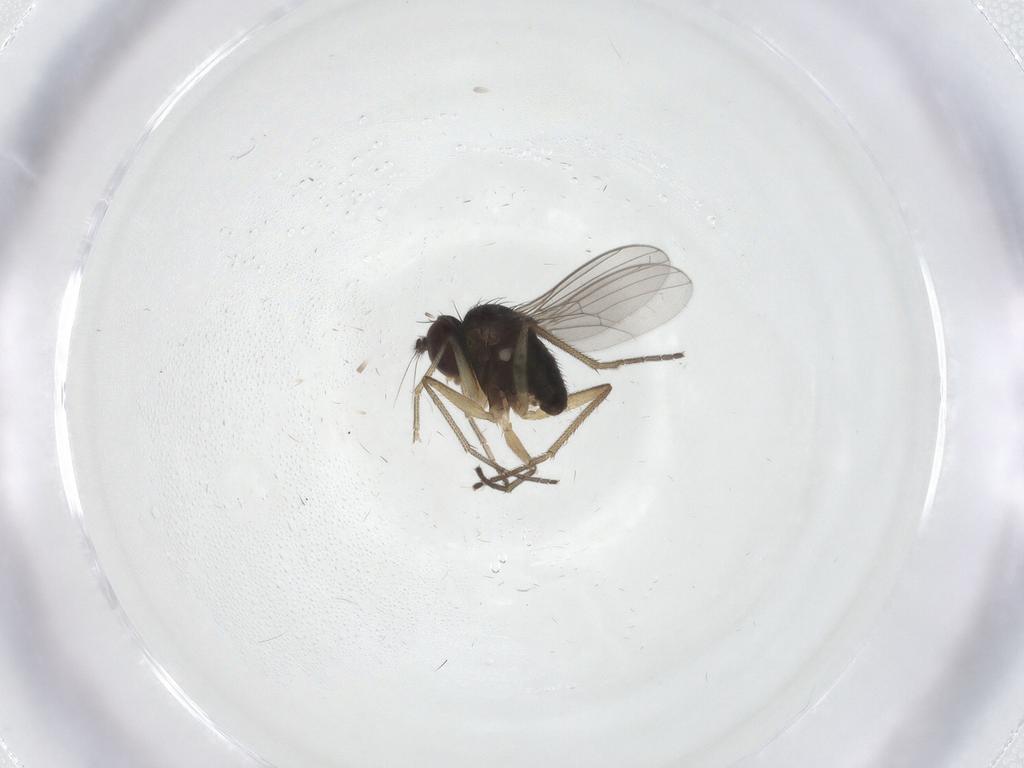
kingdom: Animalia
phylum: Arthropoda
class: Insecta
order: Diptera
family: Dolichopodidae
